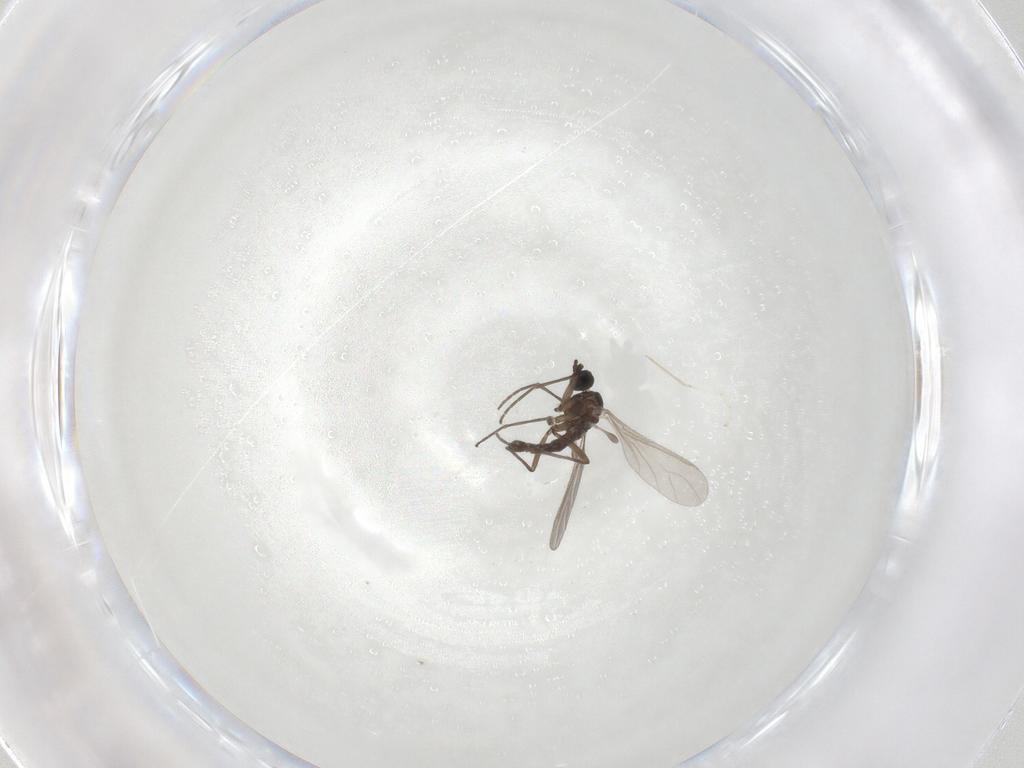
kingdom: Animalia
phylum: Arthropoda
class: Insecta
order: Diptera
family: Sciaridae
